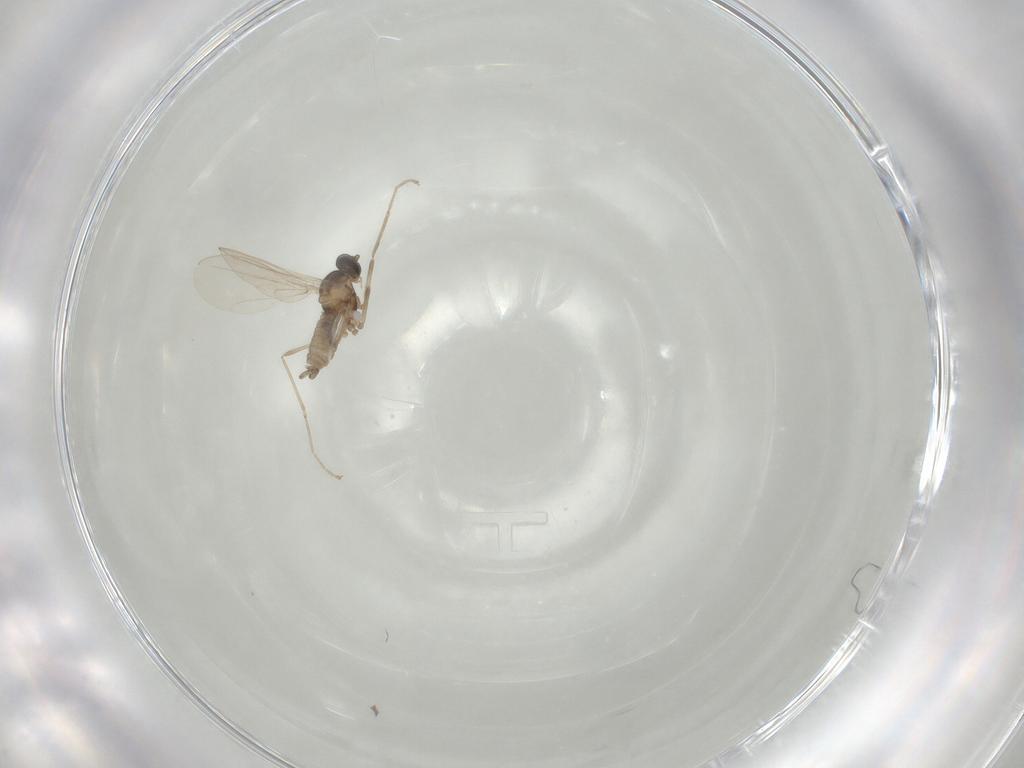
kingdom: Animalia
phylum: Arthropoda
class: Insecta
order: Diptera
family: Cecidomyiidae
